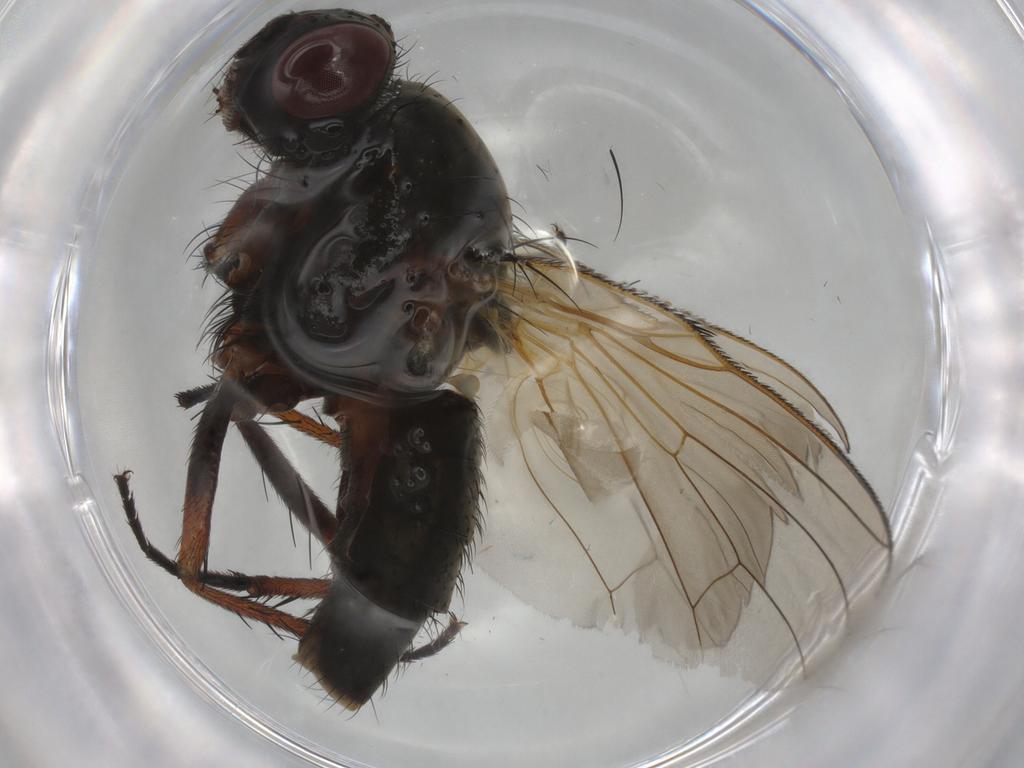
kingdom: Animalia
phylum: Arthropoda
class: Insecta
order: Diptera
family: Anthomyiidae
